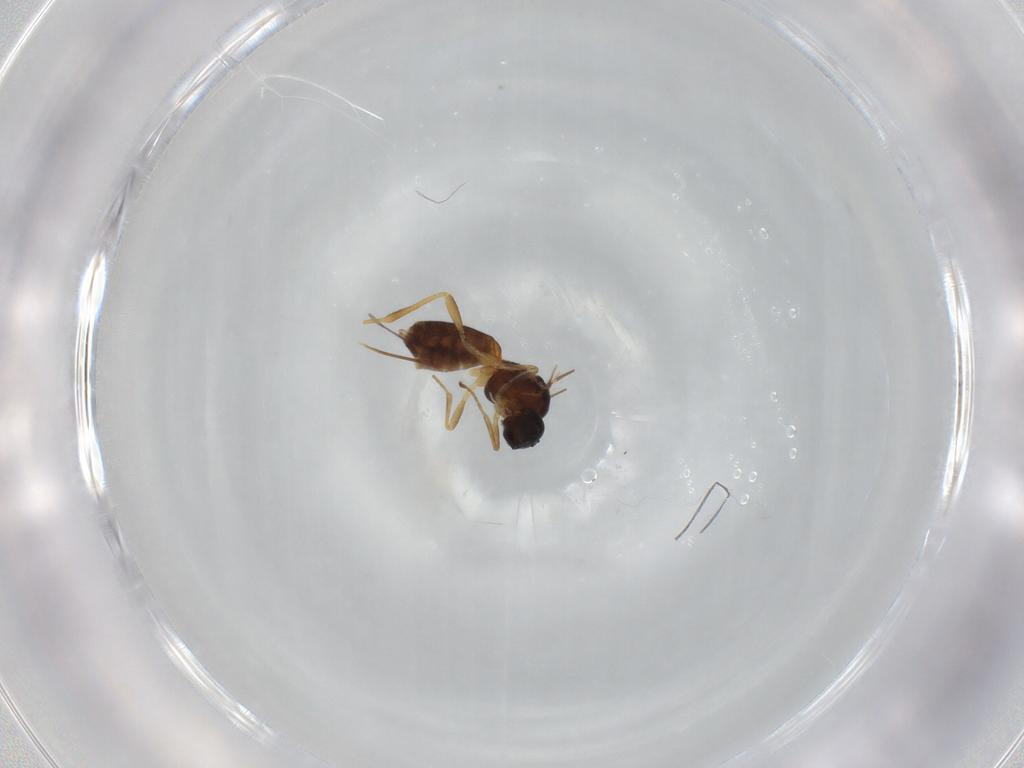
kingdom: Animalia
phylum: Arthropoda
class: Insecta
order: Hymenoptera
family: Braconidae
